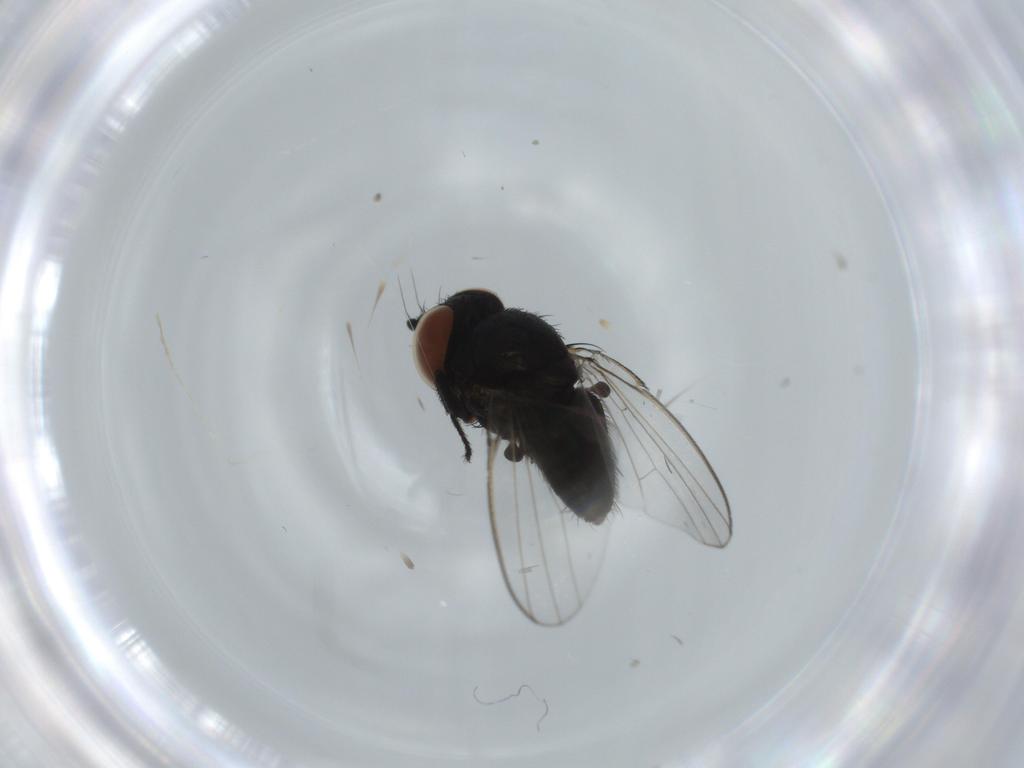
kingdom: Animalia
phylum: Arthropoda
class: Insecta
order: Diptera
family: Milichiidae
